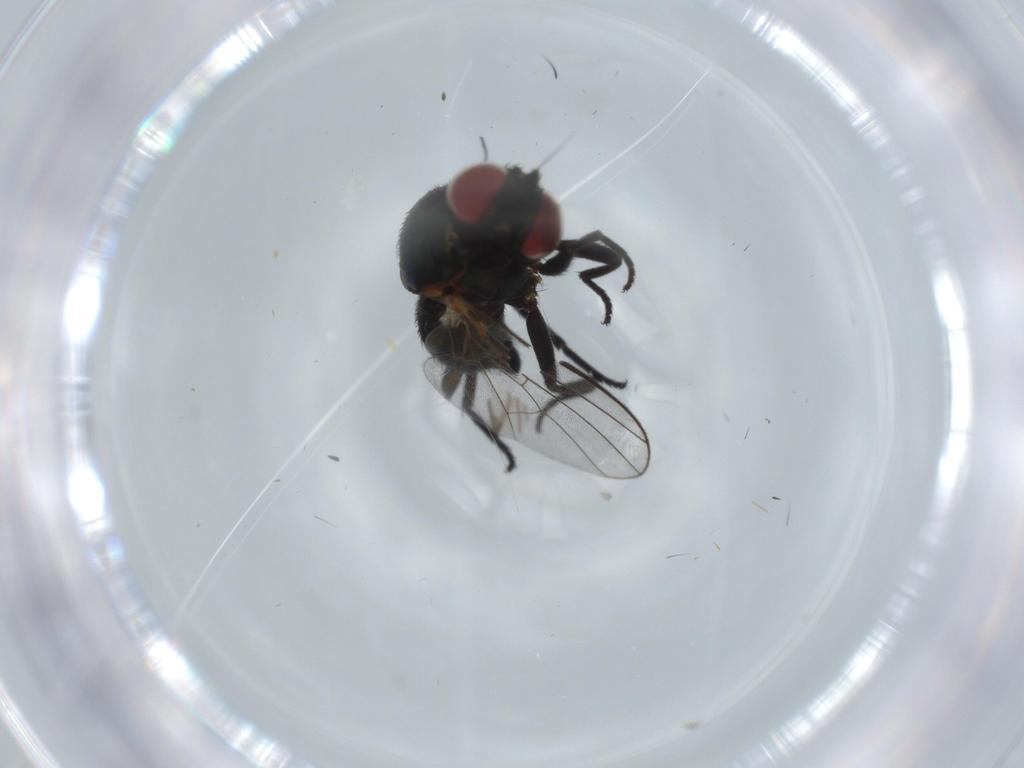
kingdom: Animalia
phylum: Arthropoda
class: Insecta
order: Diptera
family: Agromyzidae
